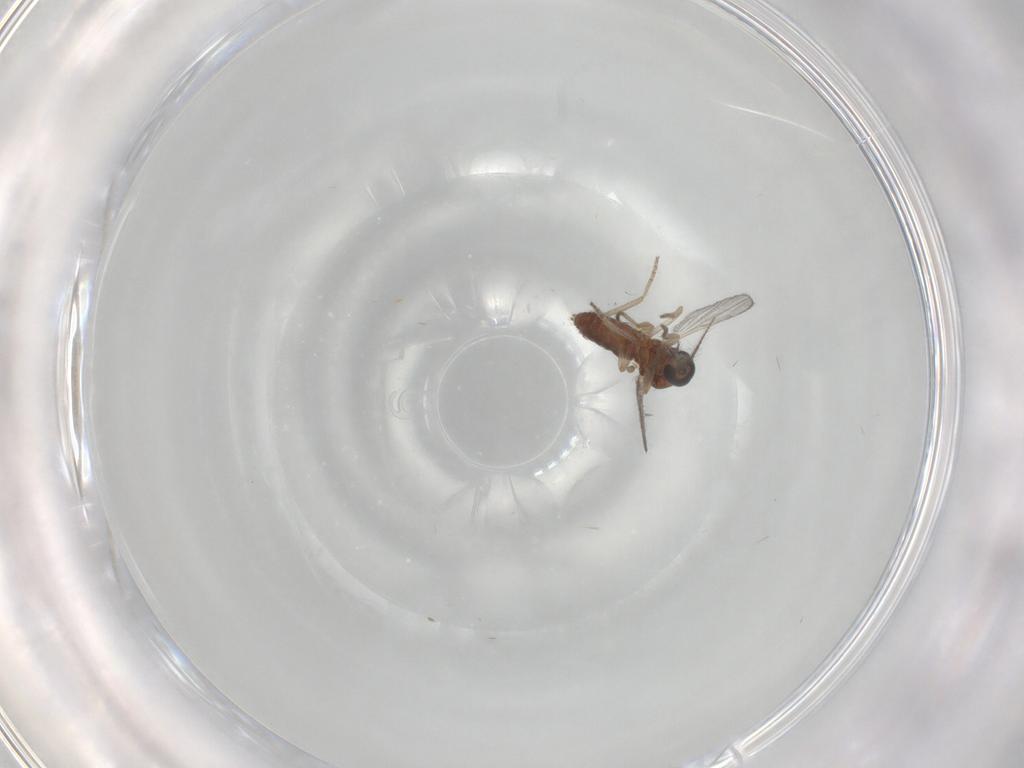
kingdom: Animalia
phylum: Arthropoda
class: Insecta
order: Diptera
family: Ceratopogonidae
